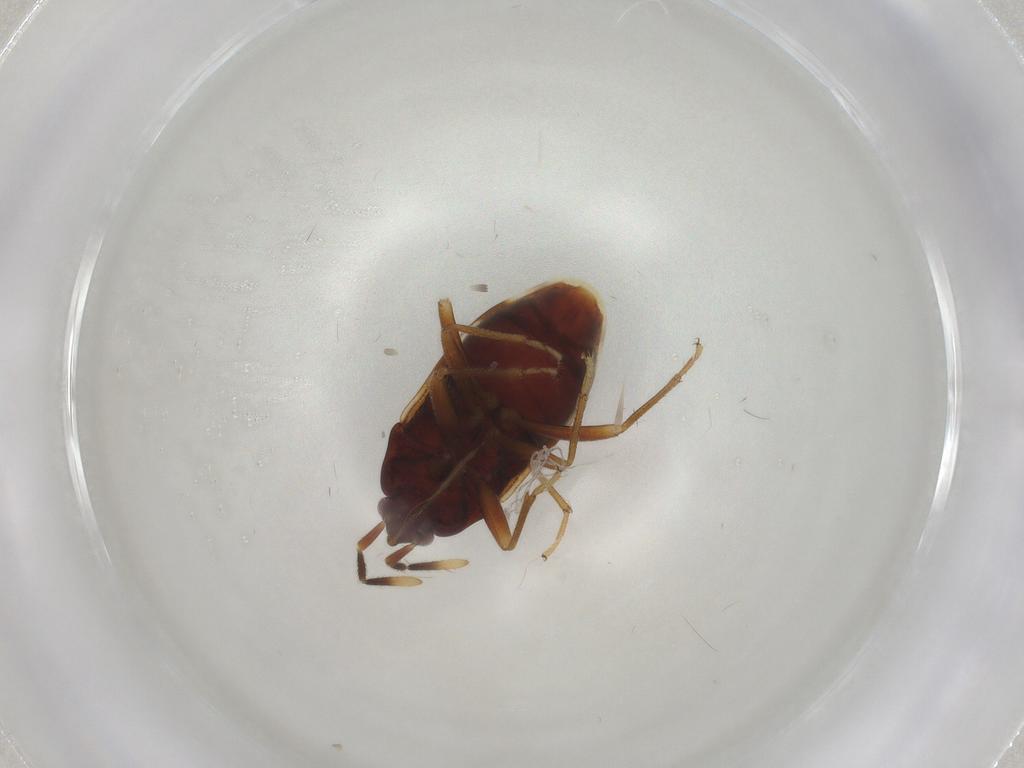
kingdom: Animalia
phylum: Arthropoda
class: Insecta
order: Hemiptera
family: Rhyparochromidae
